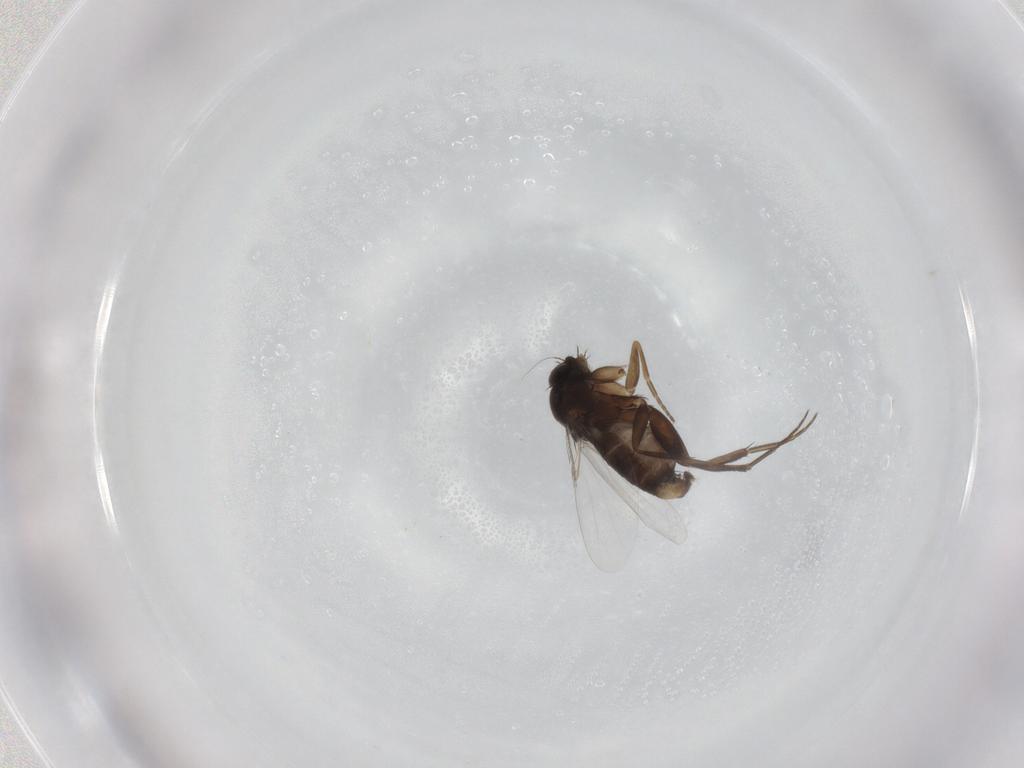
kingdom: Animalia
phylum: Arthropoda
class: Insecta
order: Diptera
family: Phoridae
